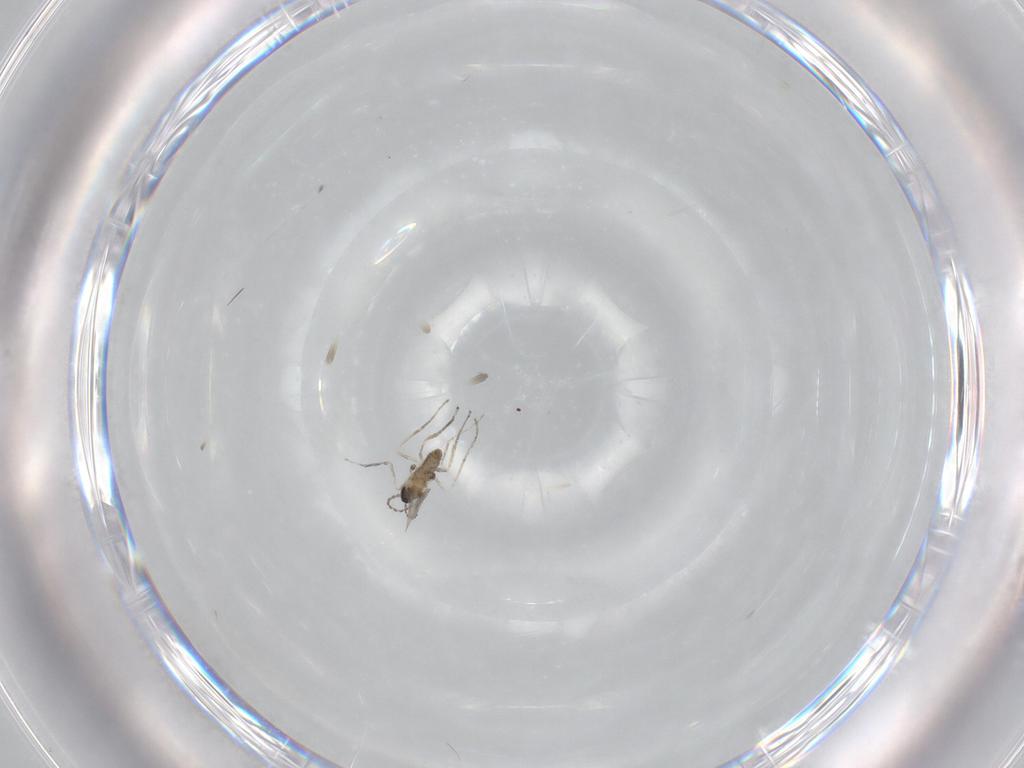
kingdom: Animalia
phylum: Arthropoda
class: Insecta
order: Diptera
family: Cecidomyiidae
